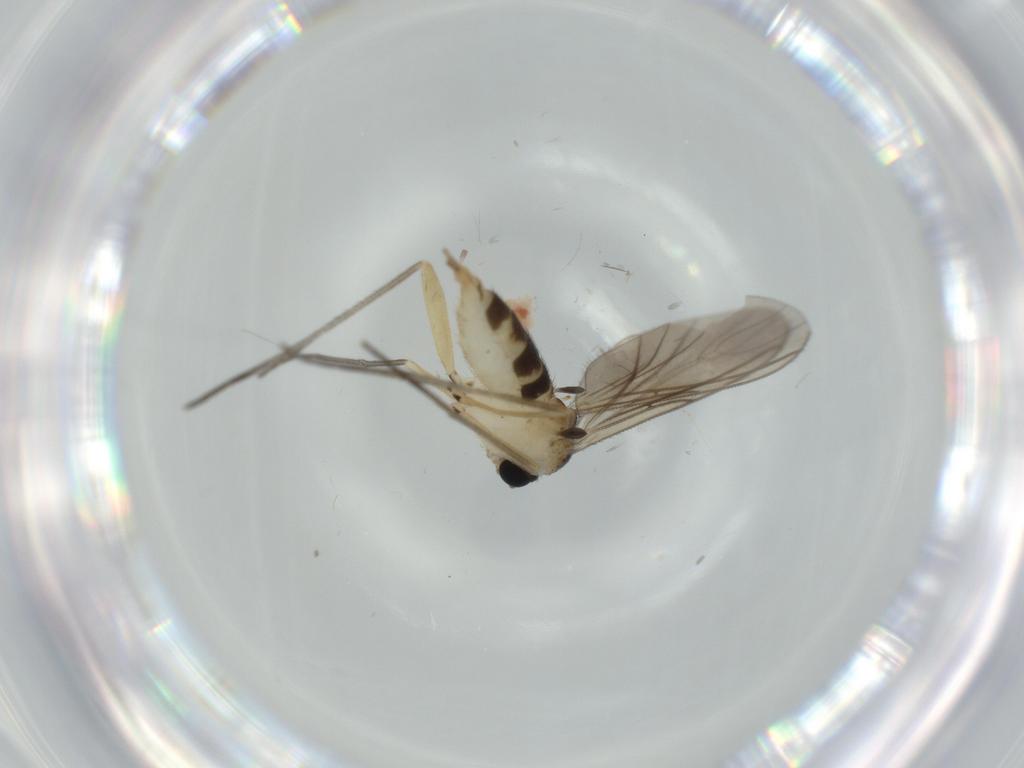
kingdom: Animalia
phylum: Arthropoda
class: Insecta
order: Diptera
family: Sciaridae
